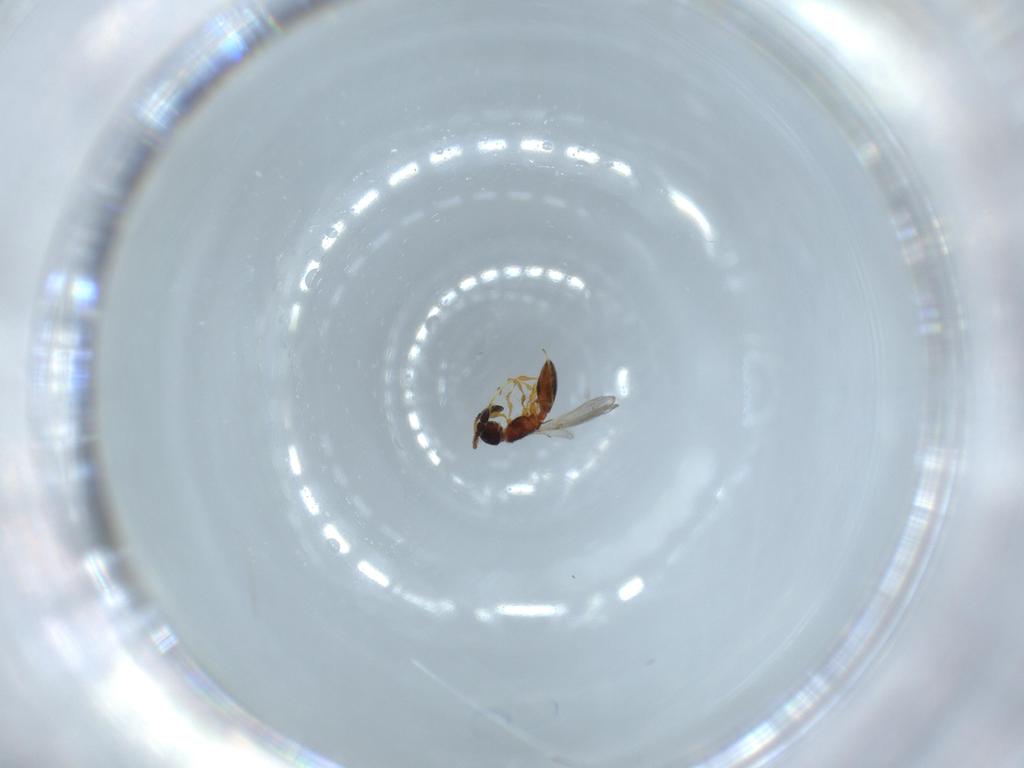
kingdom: Animalia
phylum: Arthropoda
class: Insecta
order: Hymenoptera
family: Diapriidae
